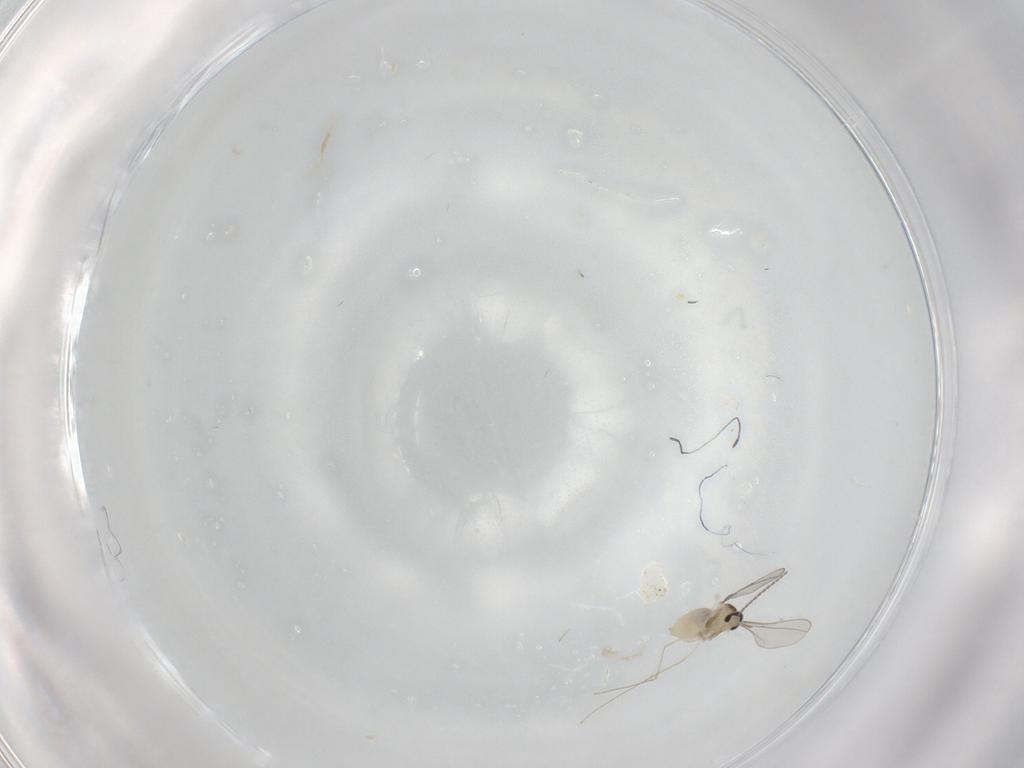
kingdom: Animalia
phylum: Arthropoda
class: Insecta
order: Diptera
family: Cecidomyiidae
